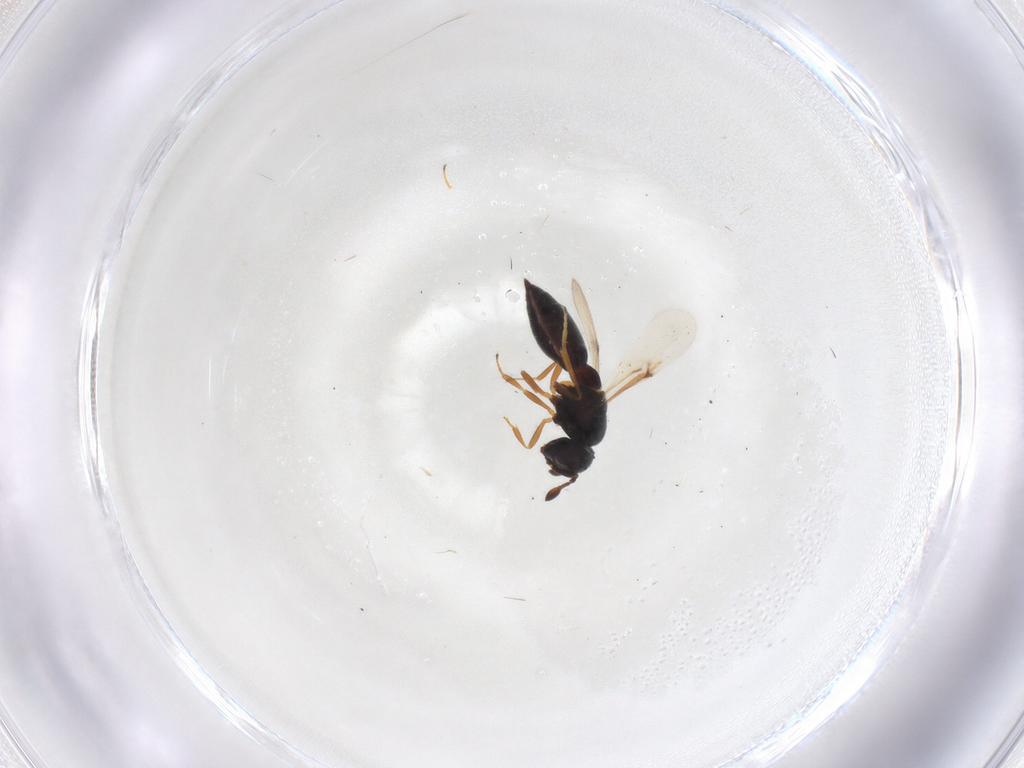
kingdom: Animalia
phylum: Arthropoda
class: Insecta
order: Hymenoptera
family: Scelionidae
